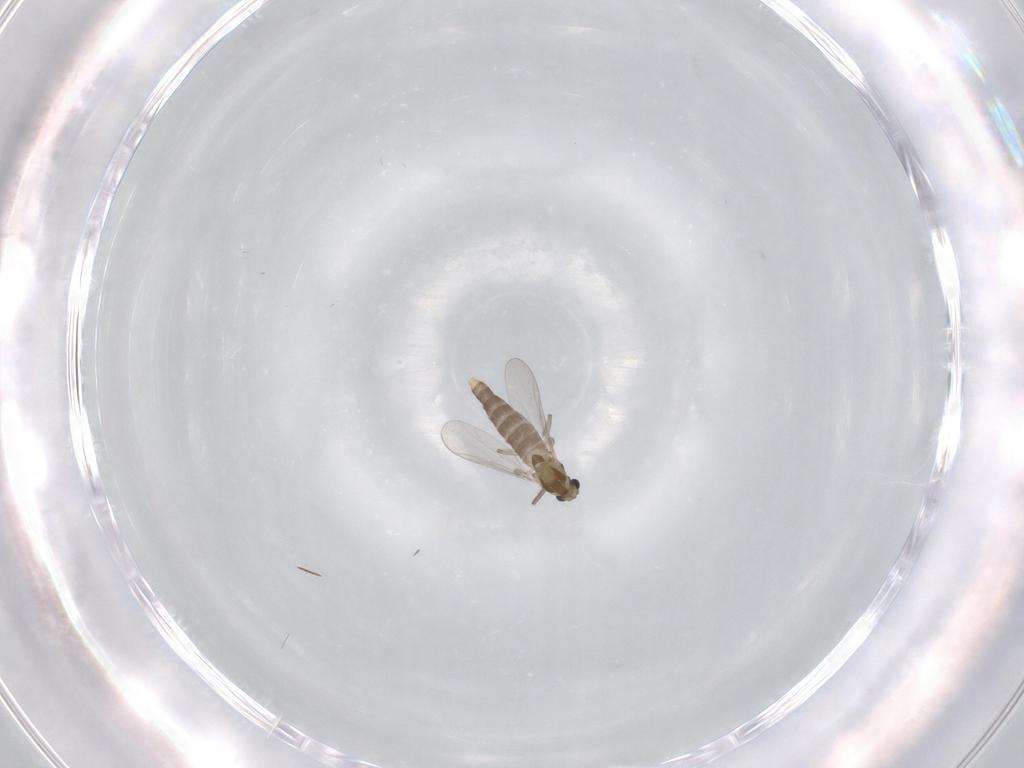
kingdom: Animalia
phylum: Arthropoda
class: Insecta
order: Diptera
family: Chironomidae
